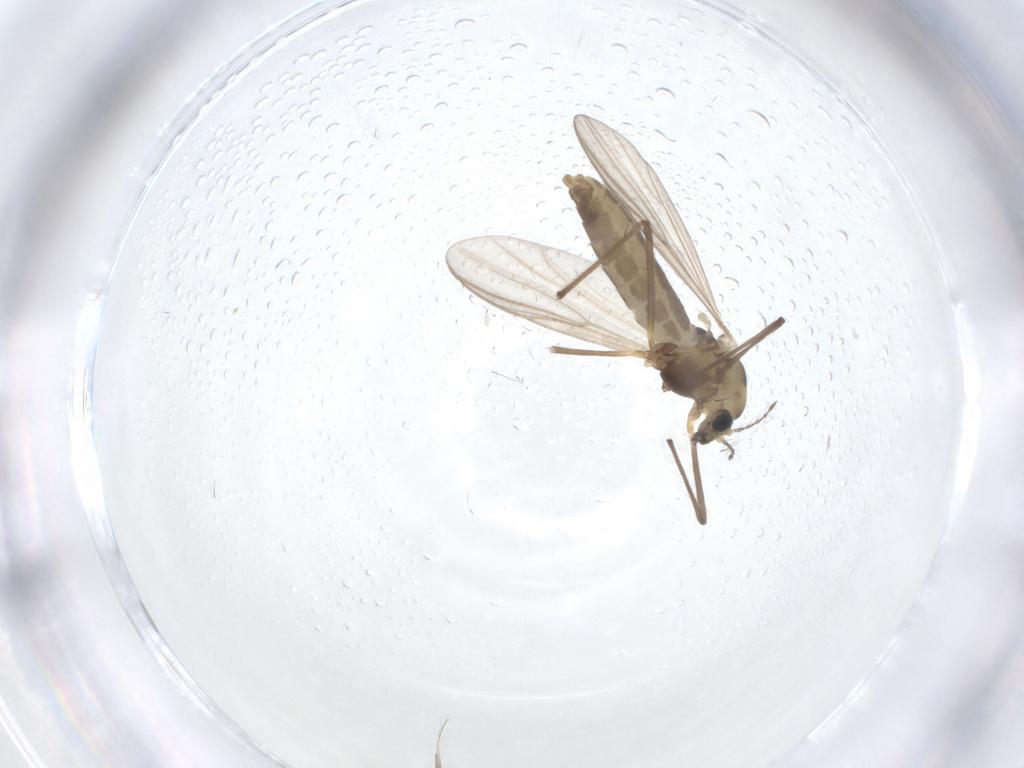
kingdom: Animalia
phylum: Arthropoda
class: Insecta
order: Diptera
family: Chironomidae
